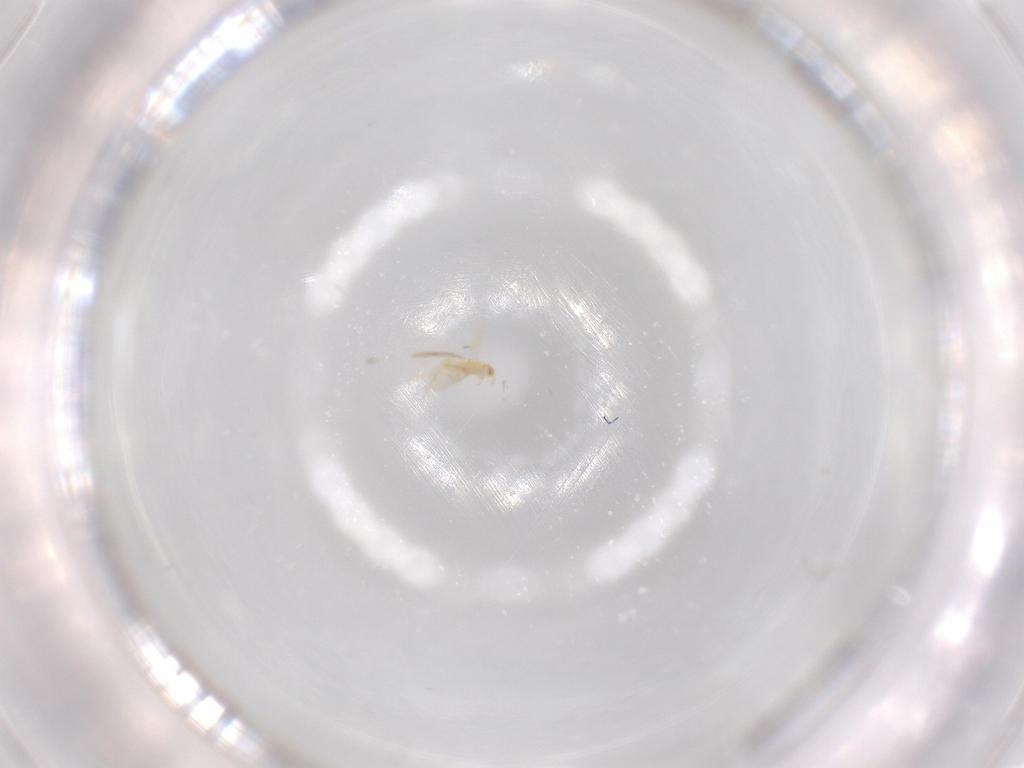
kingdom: Animalia
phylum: Arthropoda
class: Insecta
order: Hymenoptera
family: Aphelinidae
